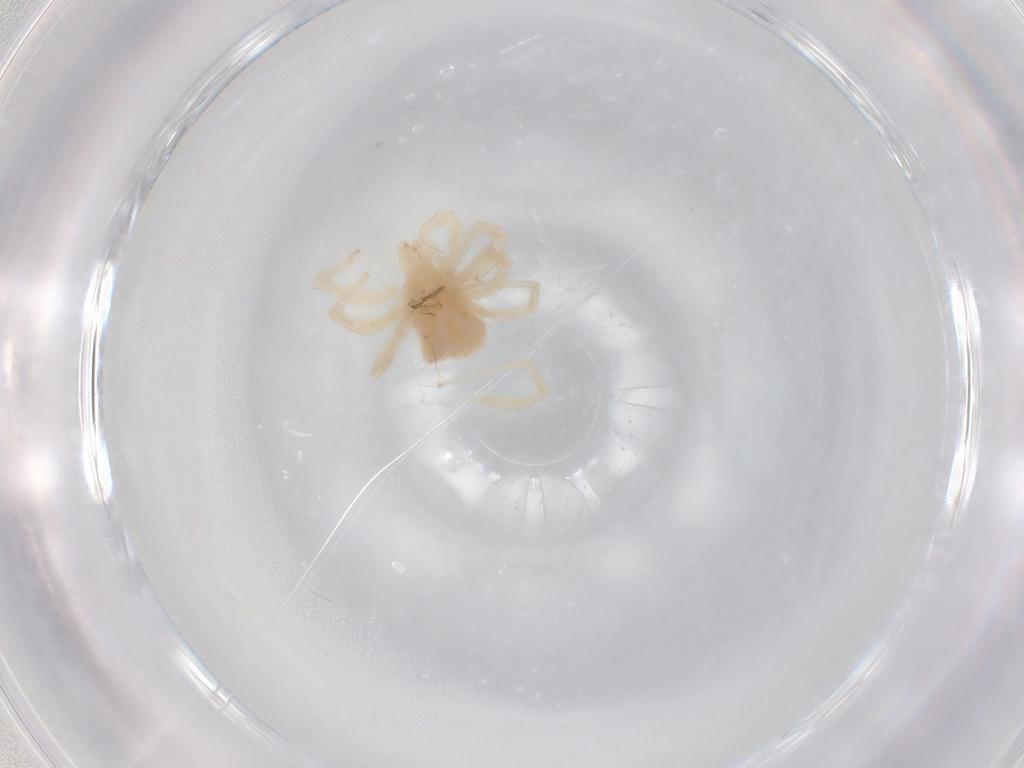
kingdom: Animalia
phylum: Arthropoda
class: Arachnida
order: Trombidiformes
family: Anystidae
